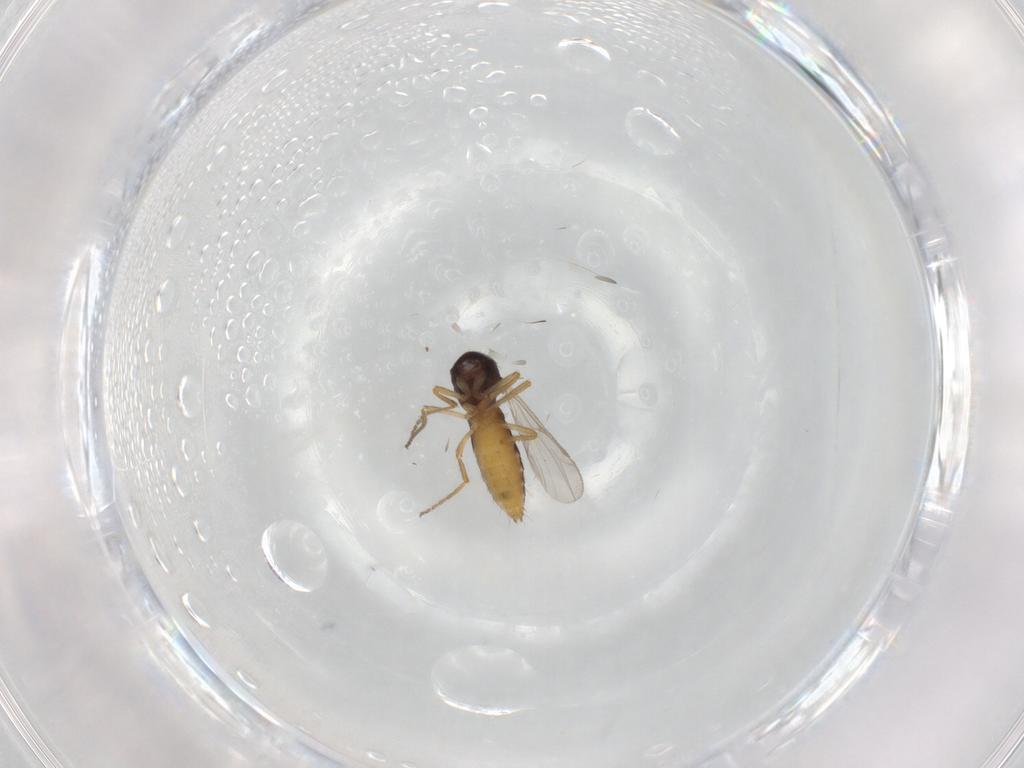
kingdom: Animalia
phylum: Arthropoda
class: Insecta
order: Diptera
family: Ceratopogonidae
